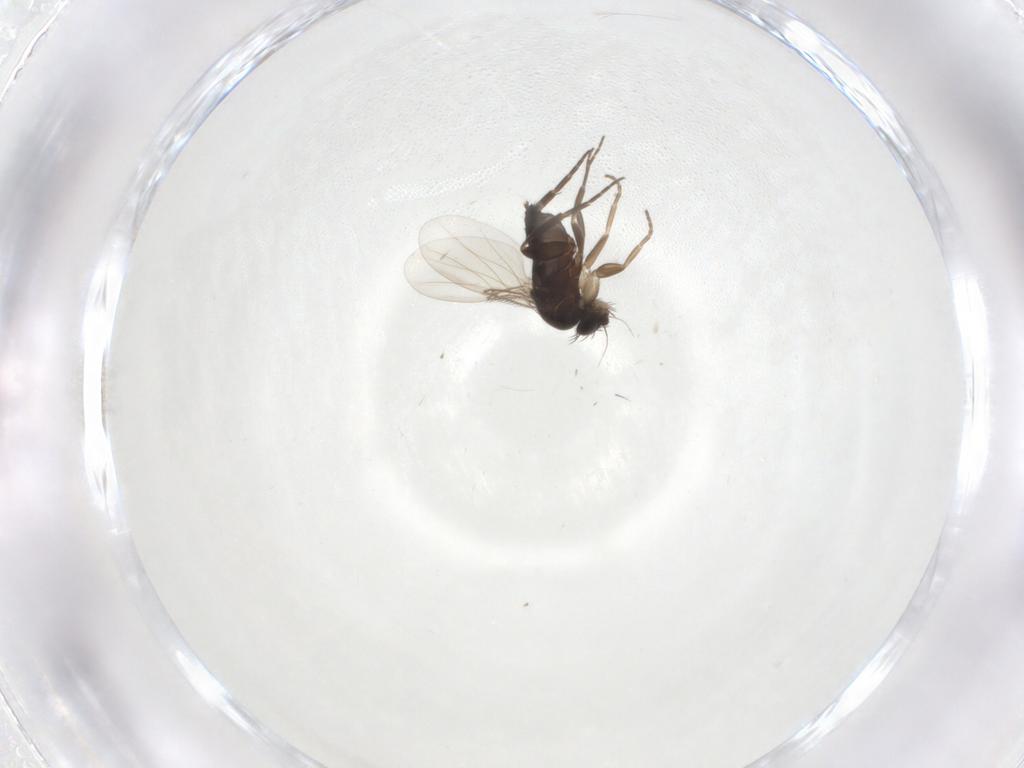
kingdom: Animalia
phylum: Arthropoda
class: Insecta
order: Diptera
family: Phoridae
